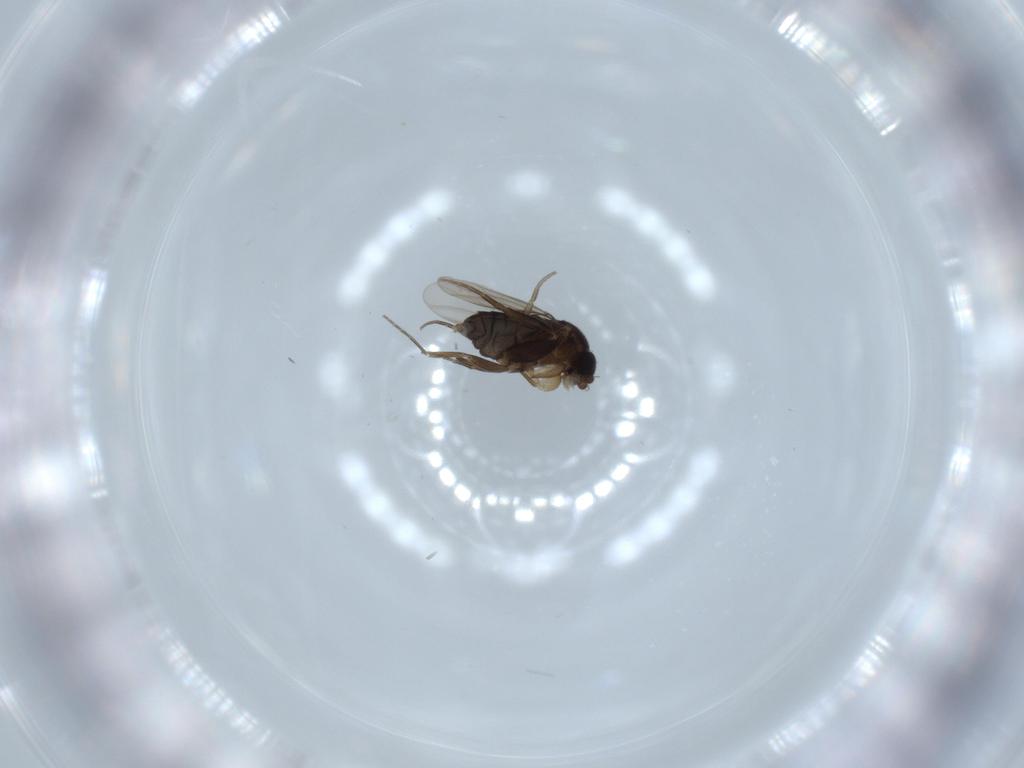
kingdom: Animalia
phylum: Arthropoda
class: Insecta
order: Diptera
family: Phoridae
